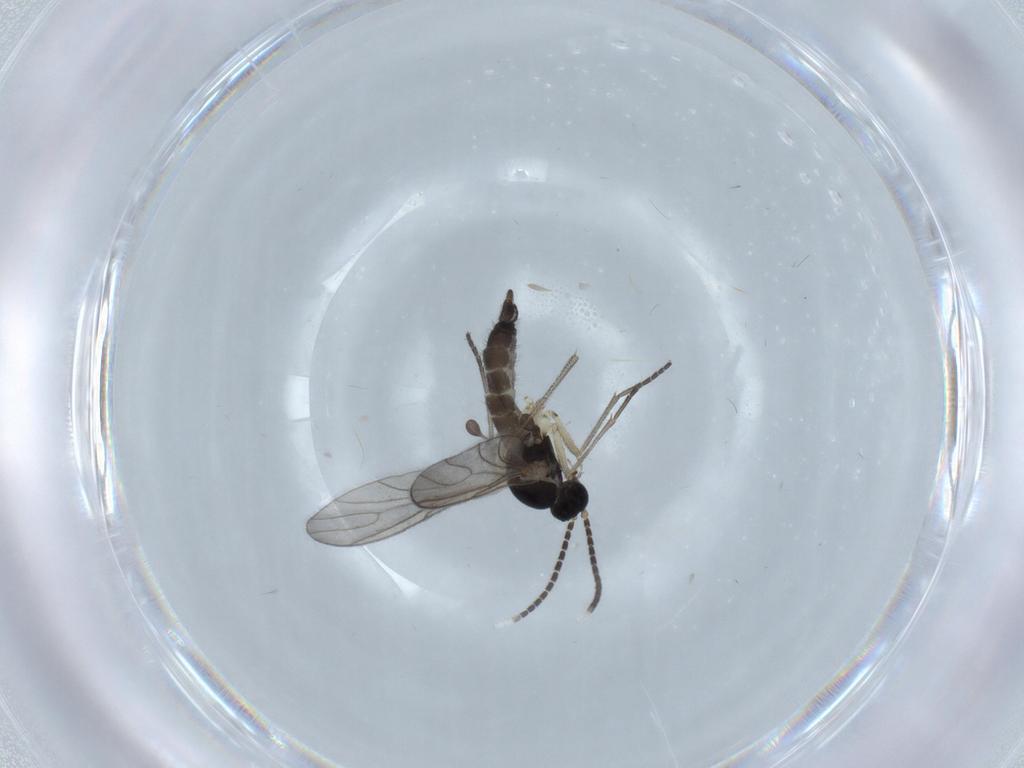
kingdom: Animalia
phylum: Arthropoda
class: Insecta
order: Diptera
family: Sciaridae
